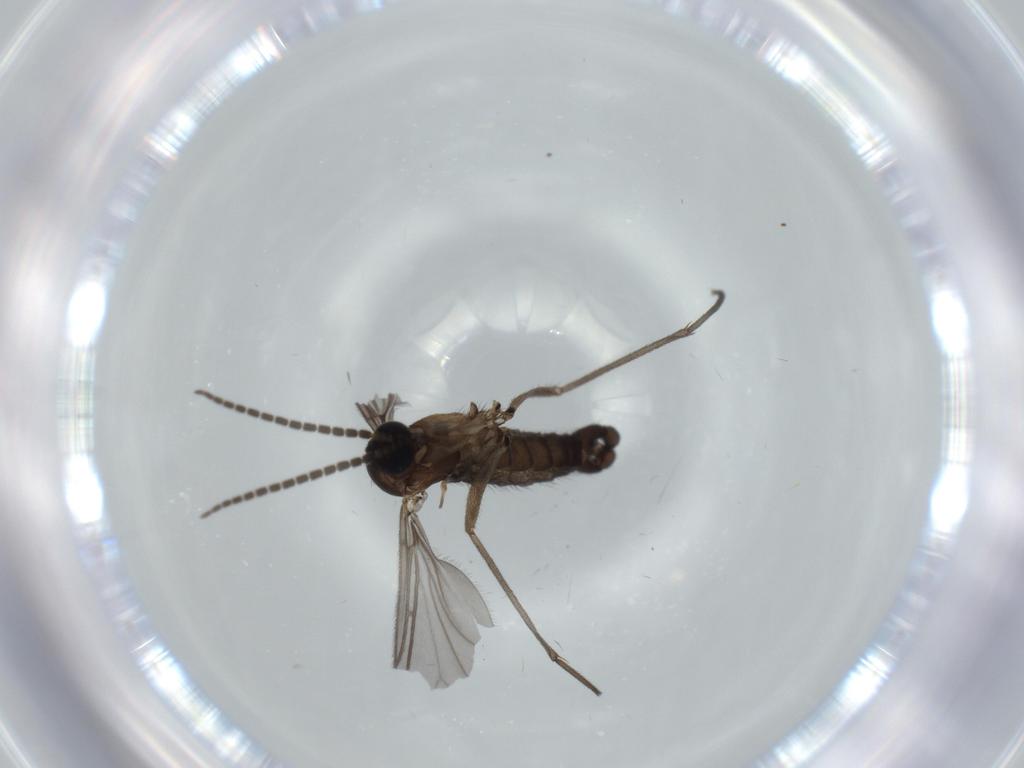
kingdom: Animalia
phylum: Arthropoda
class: Insecta
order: Diptera
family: Sciaridae
